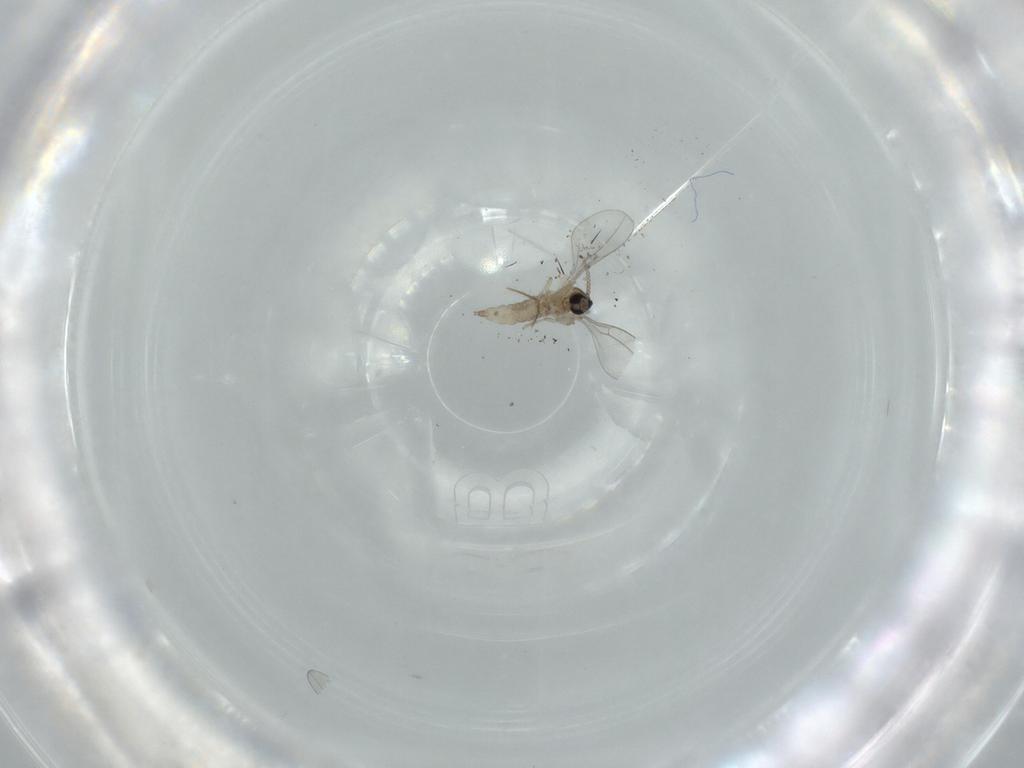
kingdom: Animalia
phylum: Arthropoda
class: Insecta
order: Diptera
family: Cecidomyiidae
